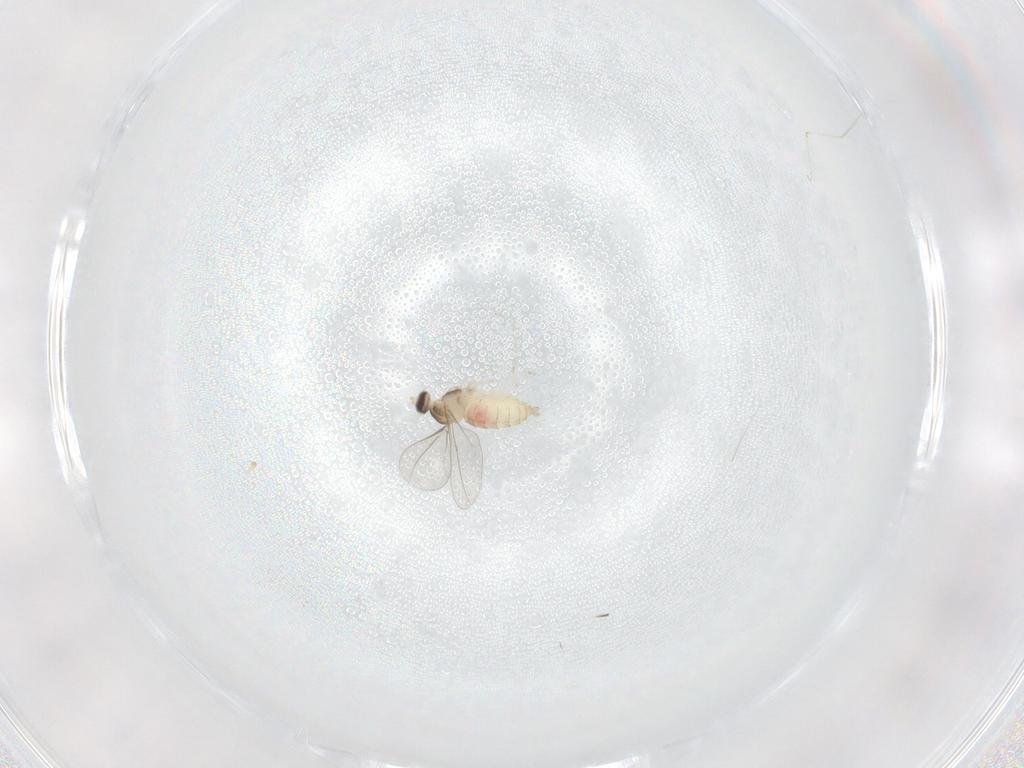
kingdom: Animalia
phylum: Arthropoda
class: Insecta
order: Diptera
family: Cecidomyiidae
